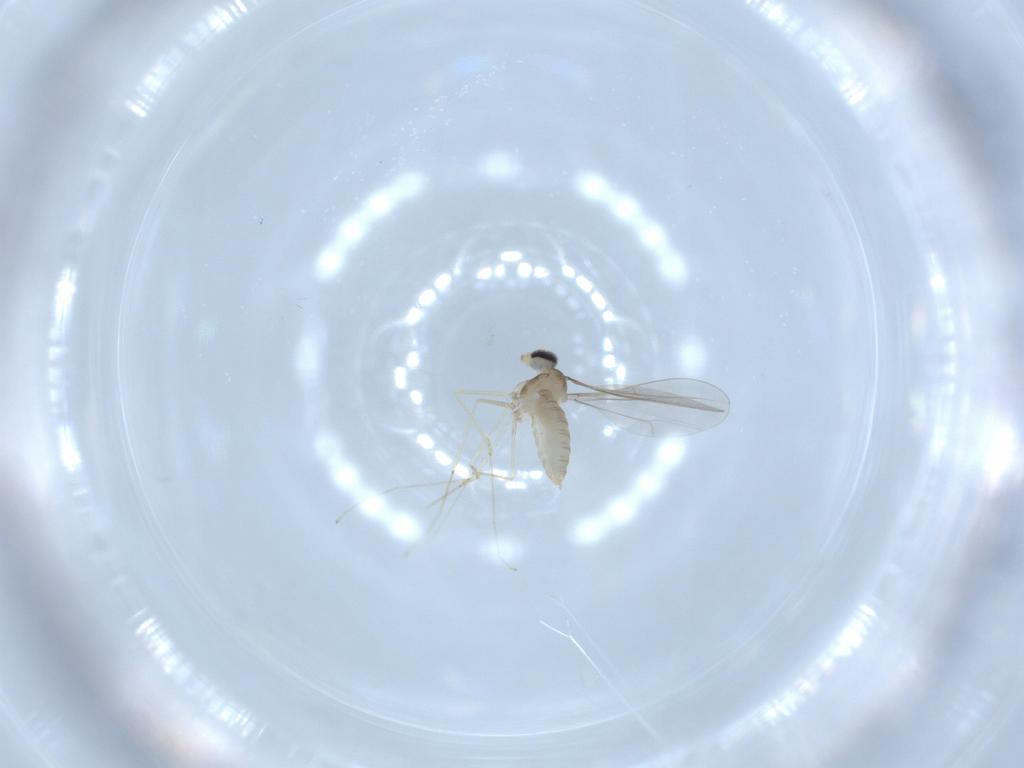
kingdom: Animalia
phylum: Arthropoda
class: Insecta
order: Diptera
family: Cecidomyiidae
